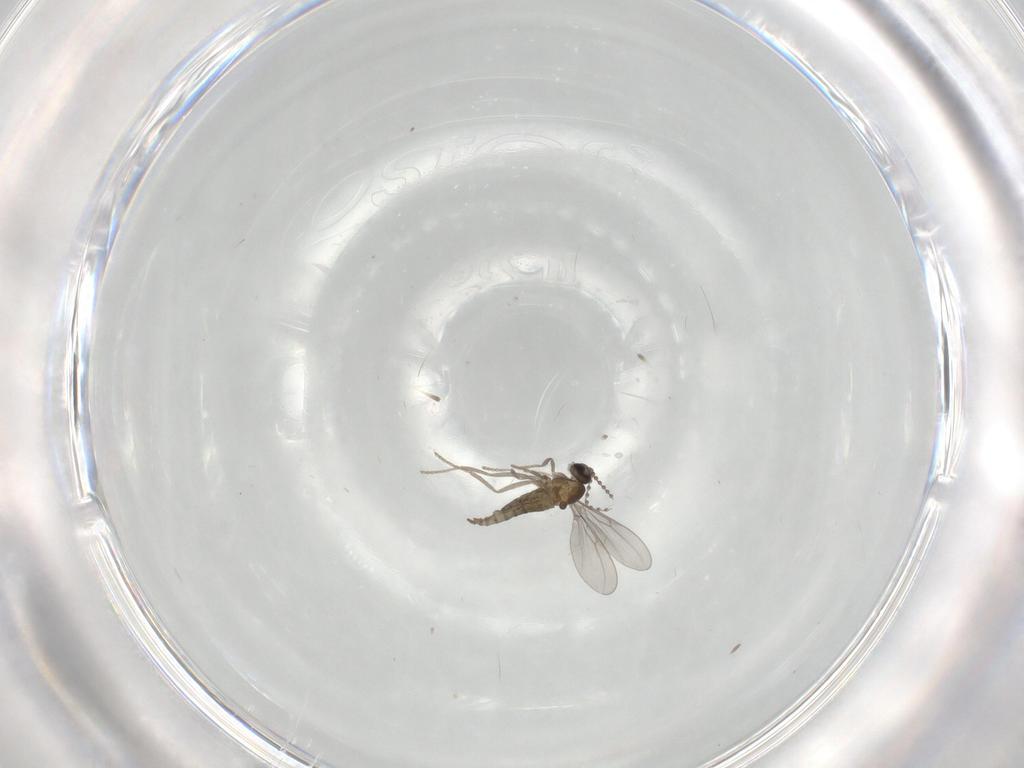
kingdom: Animalia
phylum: Arthropoda
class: Insecta
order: Diptera
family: Cecidomyiidae
